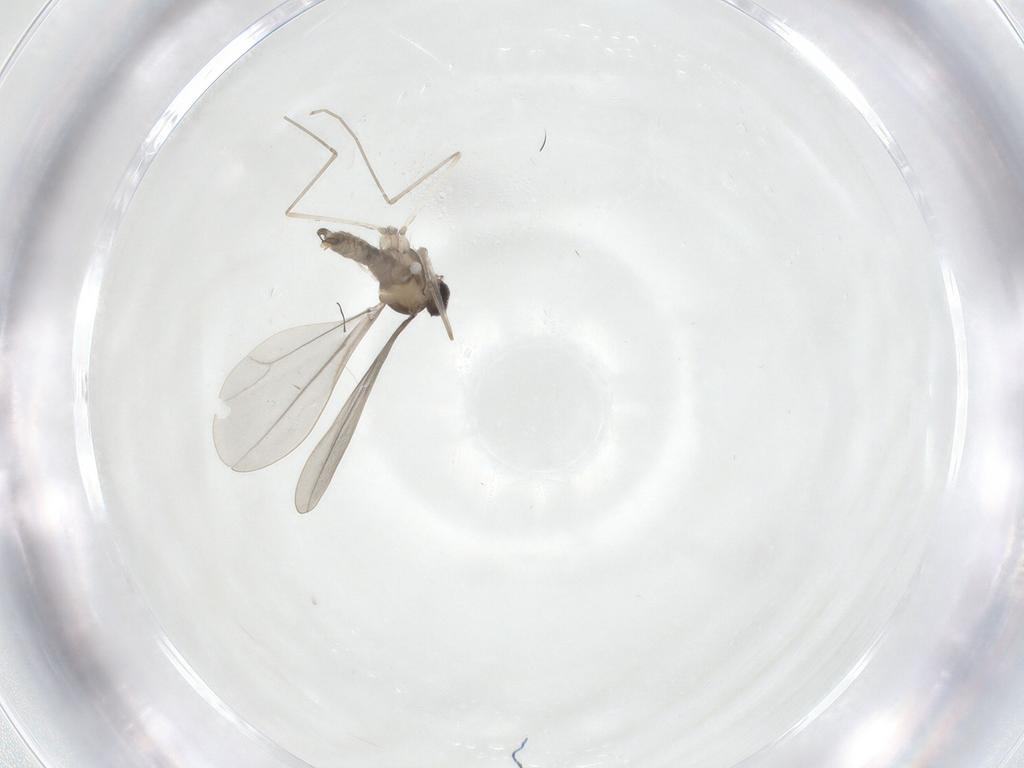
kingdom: Animalia
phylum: Arthropoda
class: Insecta
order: Diptera
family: Cecidomyiidae
